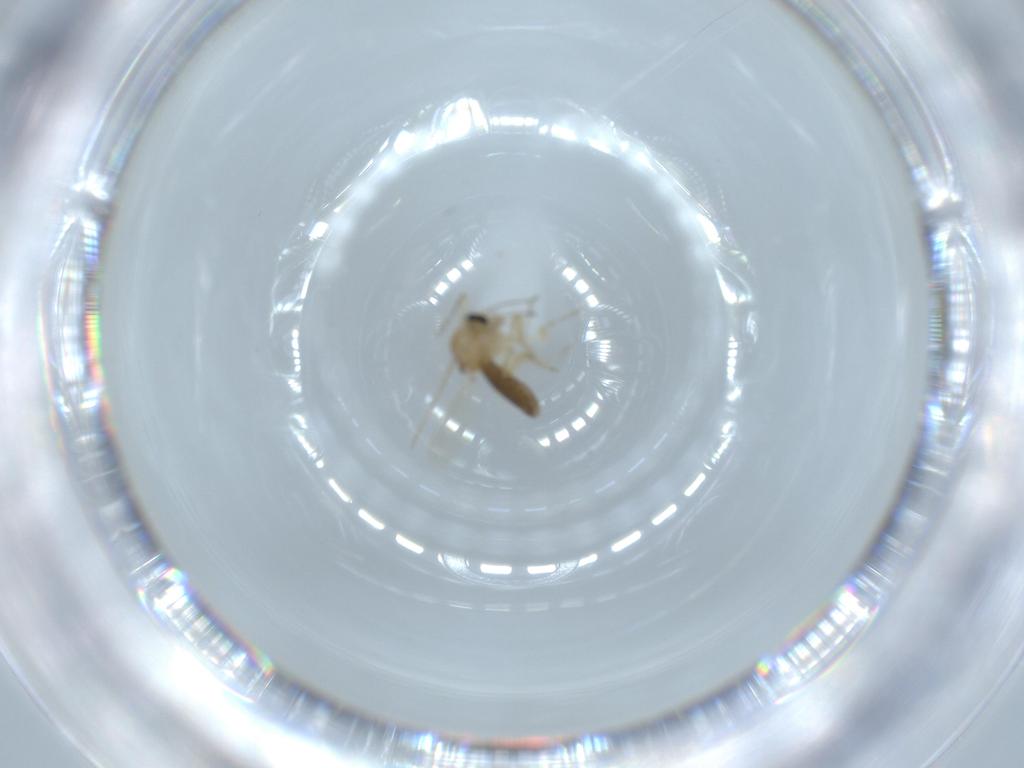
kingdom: Animalia
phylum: Arthropoda
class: Insecta
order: Diptera
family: Ceratopogonidae
